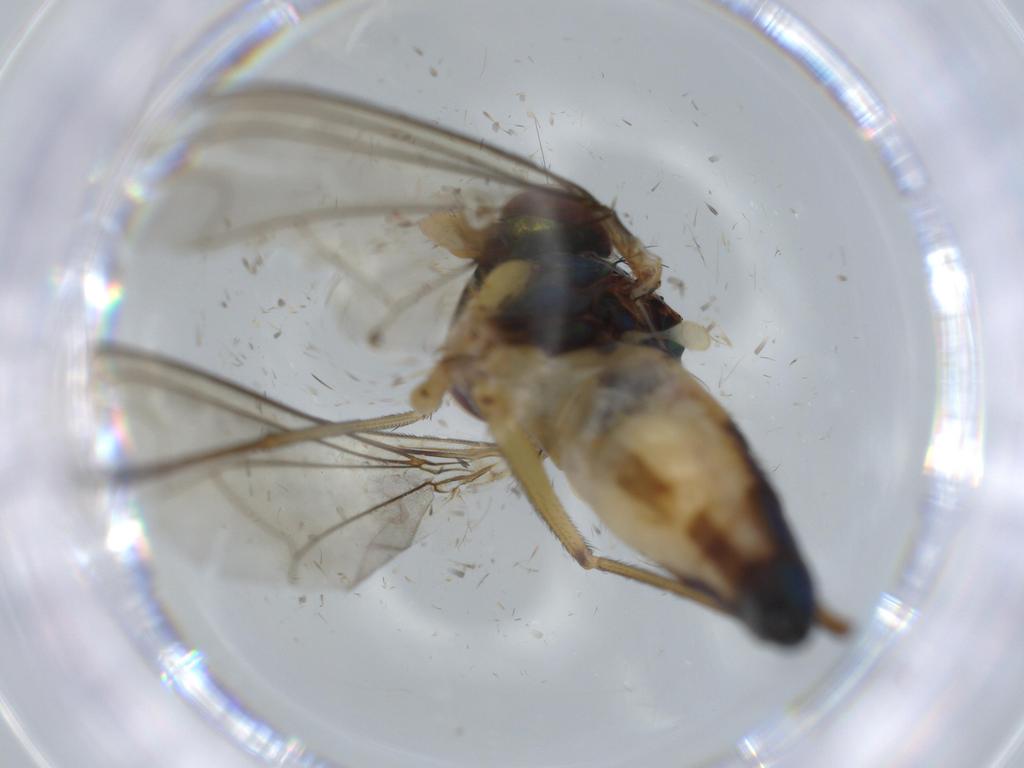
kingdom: Animalia
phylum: Arthropoda
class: Insecta
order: Diptera
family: Dolichopodidae
